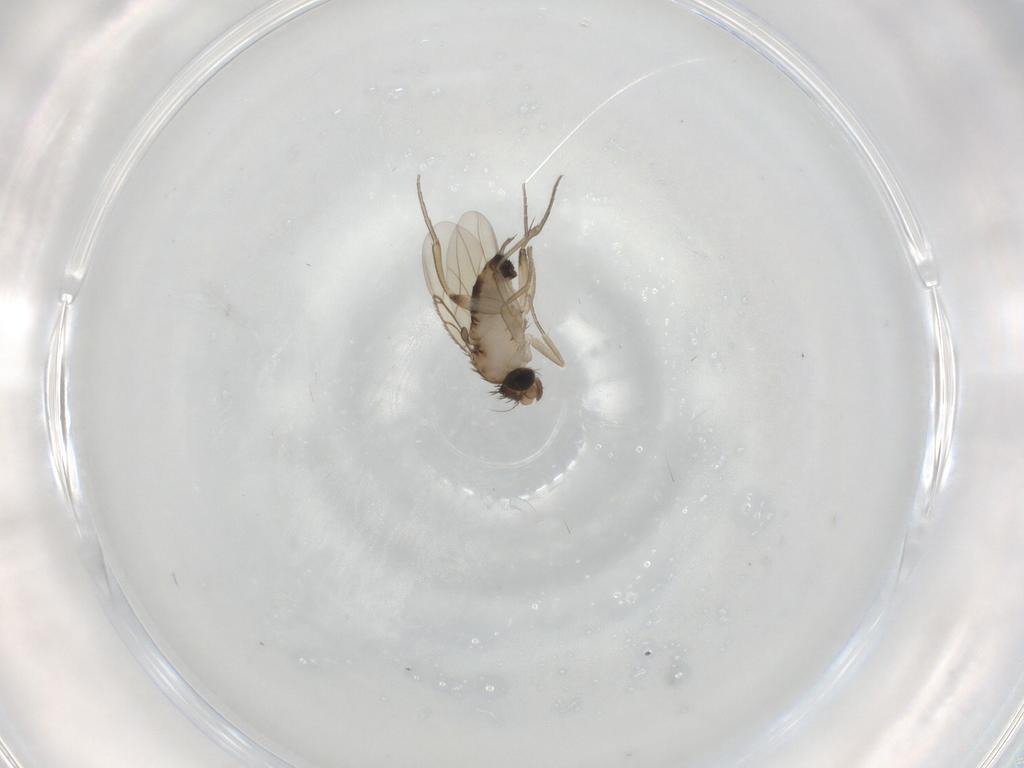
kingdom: Animalia
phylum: Arthropoda
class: Insecta
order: Diptera
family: Phoridae
